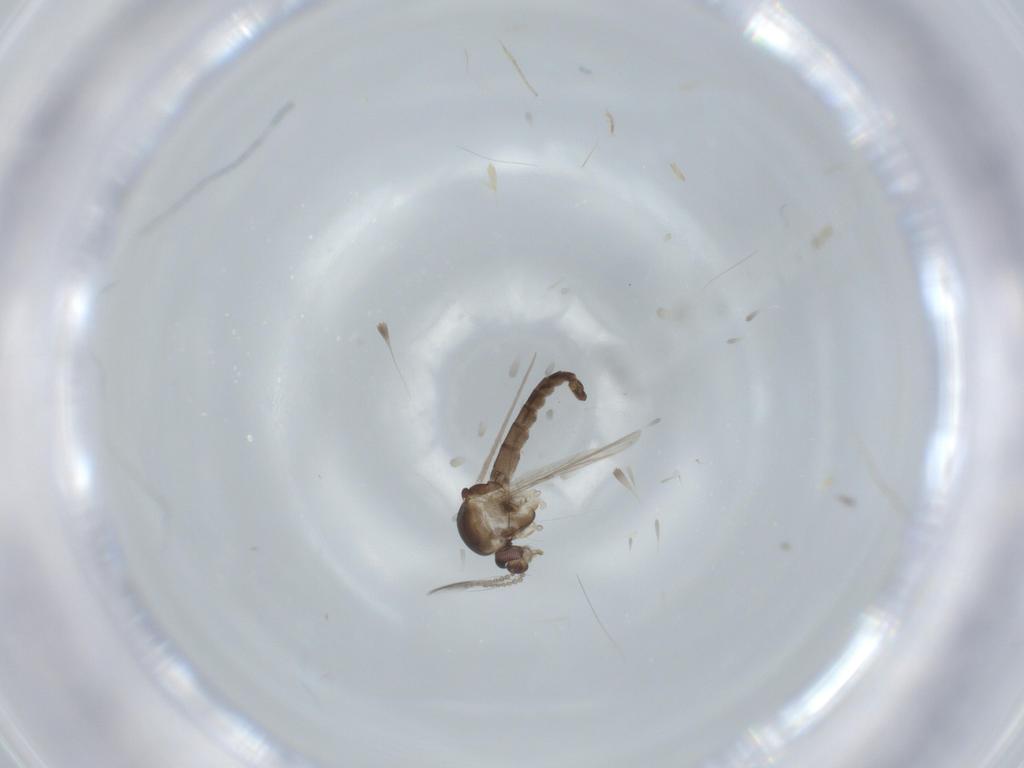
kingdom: Animalia
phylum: Arthropoda
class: Insecta
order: Diptera
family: Ceratopogonidae
